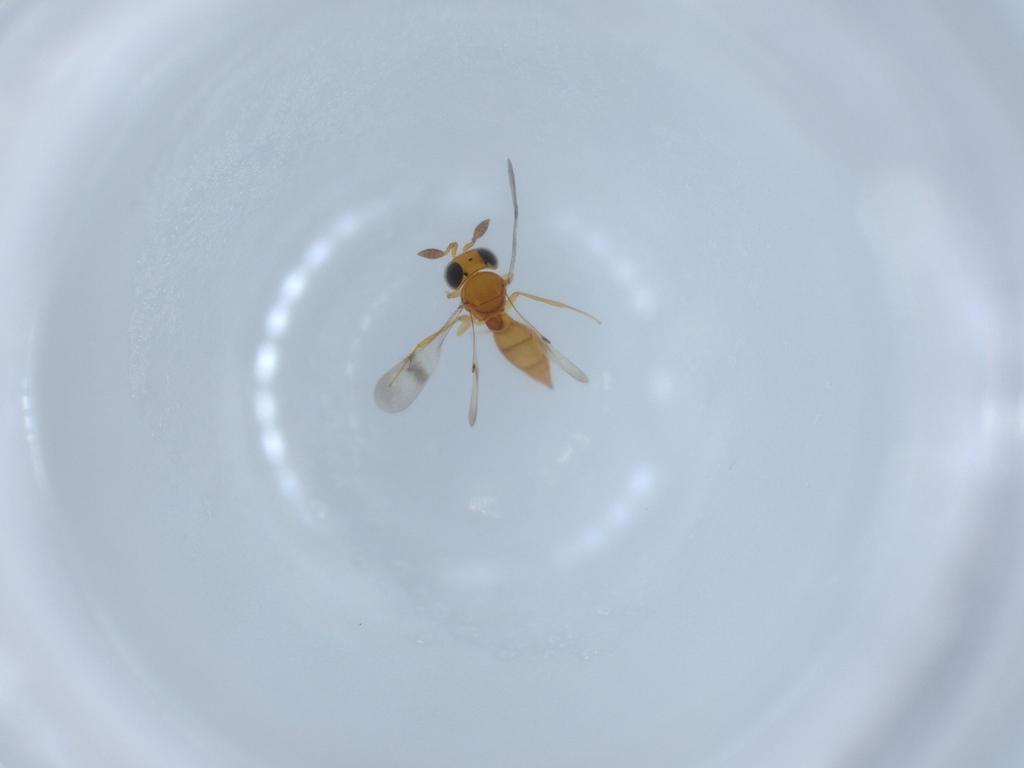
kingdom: Animalia
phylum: Arthropoda
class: Insecta
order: Hymenoptera
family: Scelionidae
